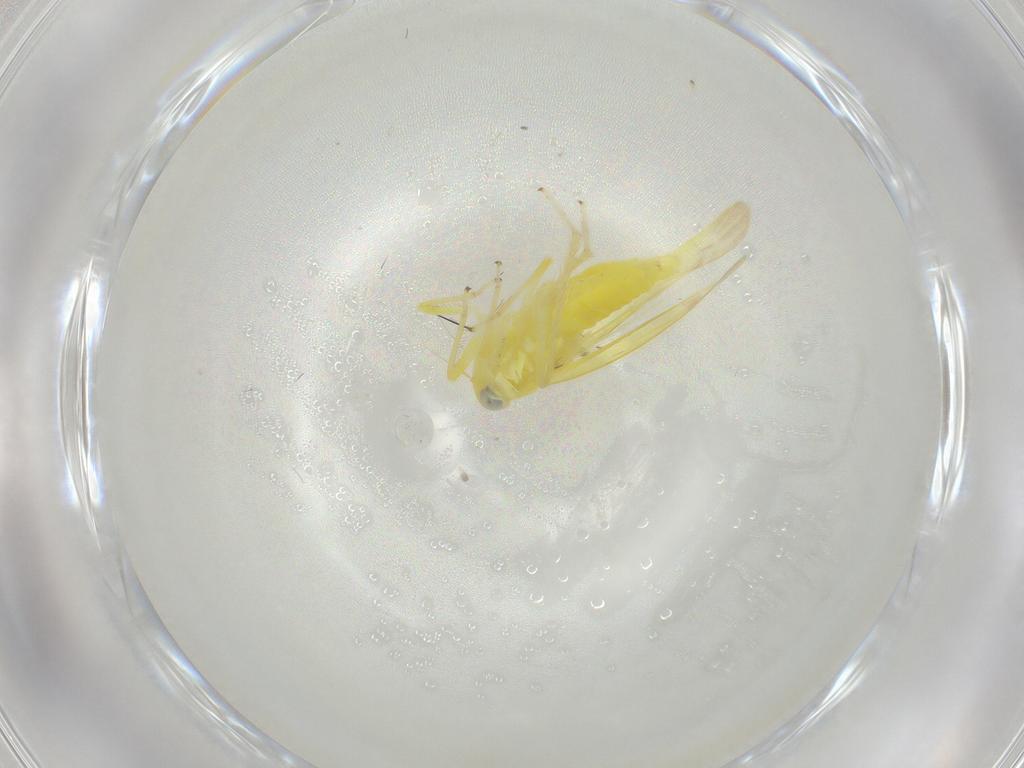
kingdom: Animalia
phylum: Arthropoda
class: Insecta
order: Hemiptera
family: Cicadellidae
